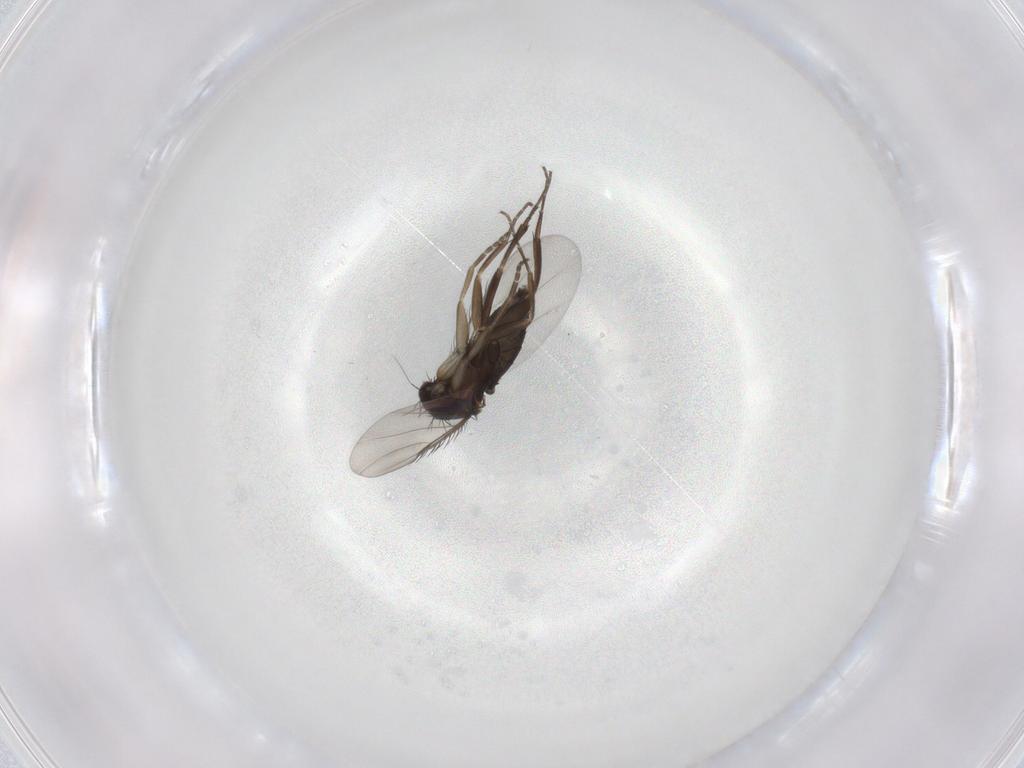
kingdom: Animalia
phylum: Arthropoda
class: Insecta
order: Diptera
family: Phoridae
